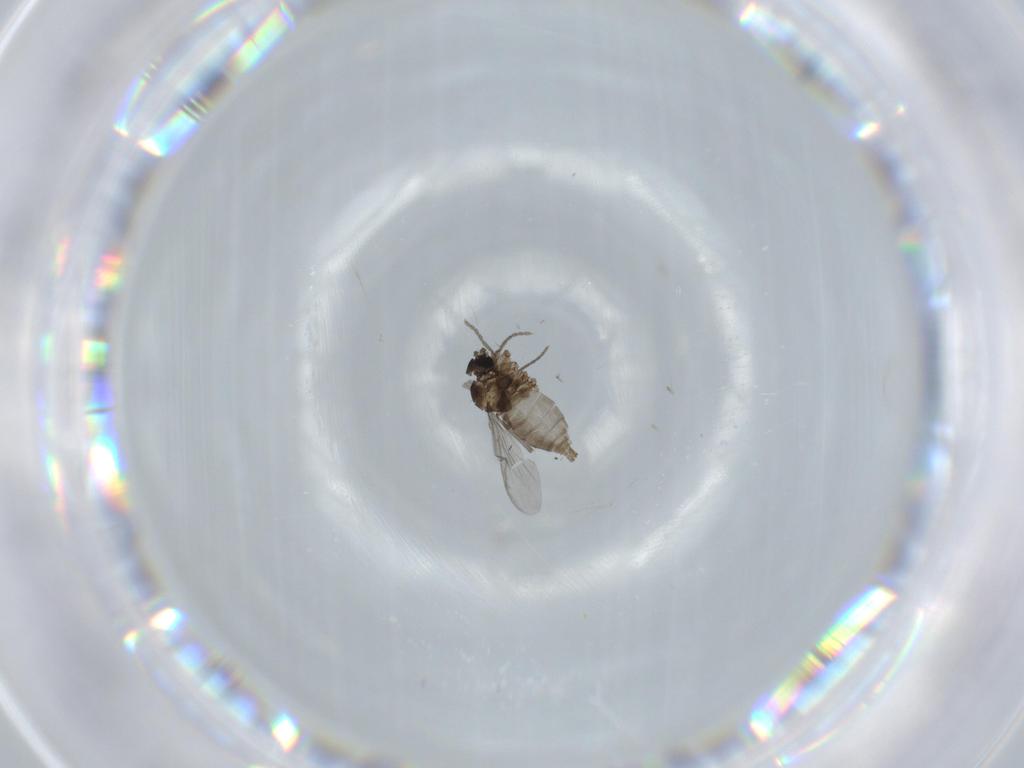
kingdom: Animalia
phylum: Arthropoda
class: Insecta
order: Diptera
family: Sciaridae
